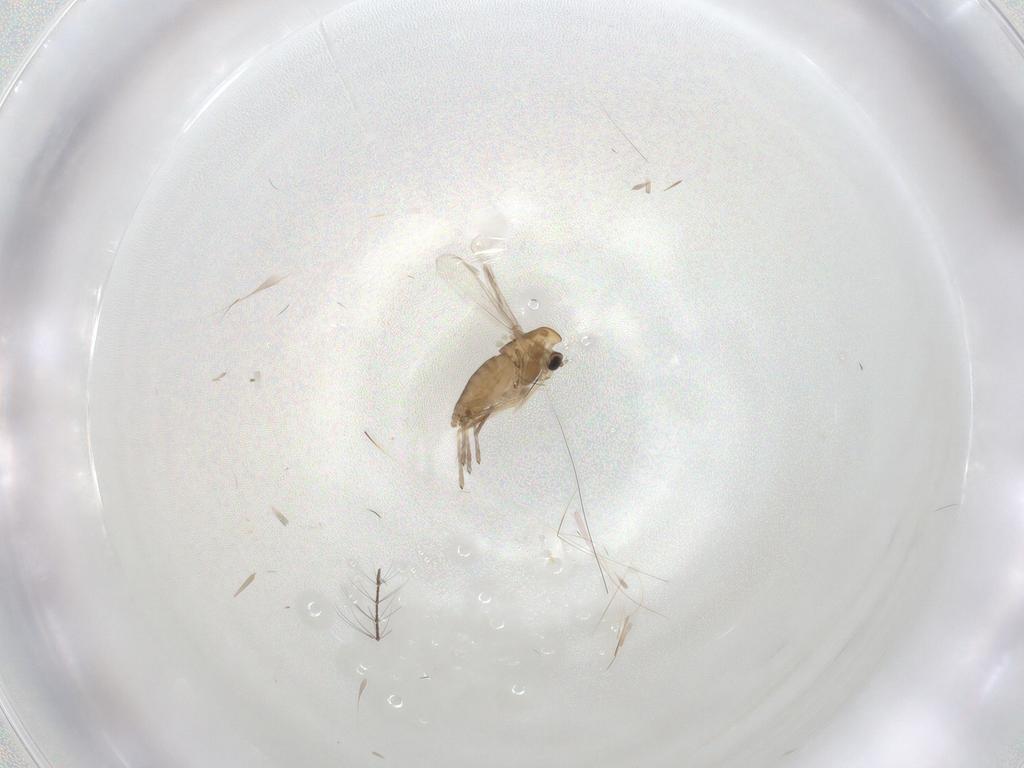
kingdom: Animalia
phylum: Arthropoda
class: Insecta
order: Diptera
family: Chironomidae
